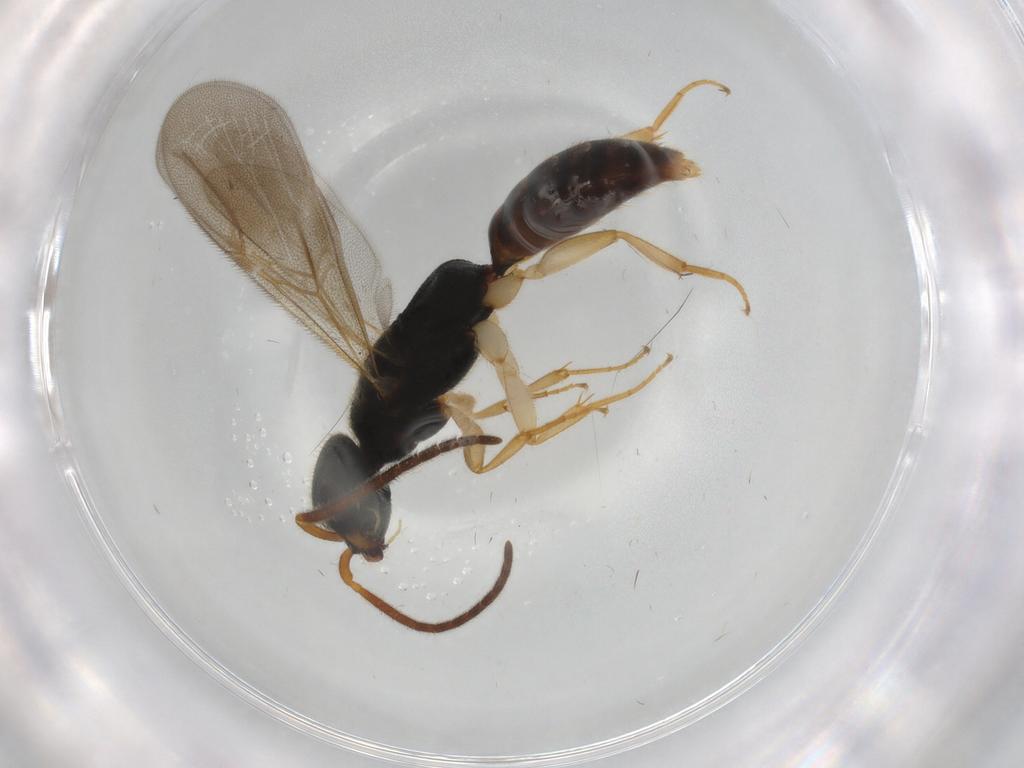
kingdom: Animalia
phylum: Arthropoda
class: Insecta
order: Hymenoptera
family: Bethylidae
